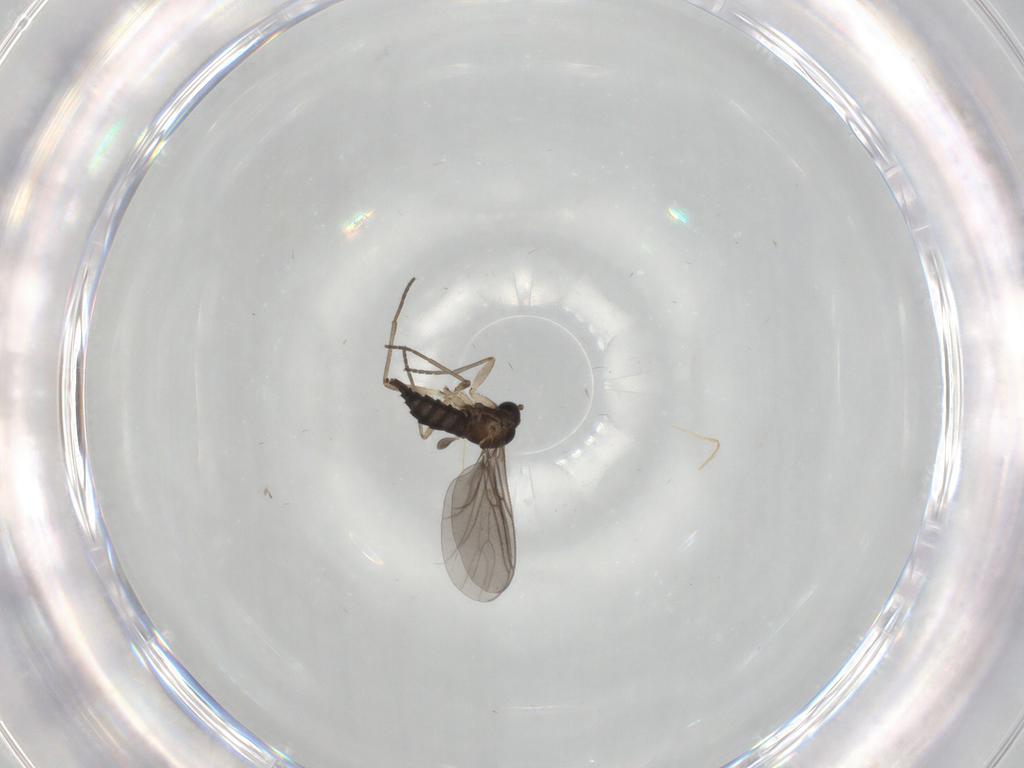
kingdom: Animalia
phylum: Arthropoda
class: Insecta
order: Diptera
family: Sciaridae
